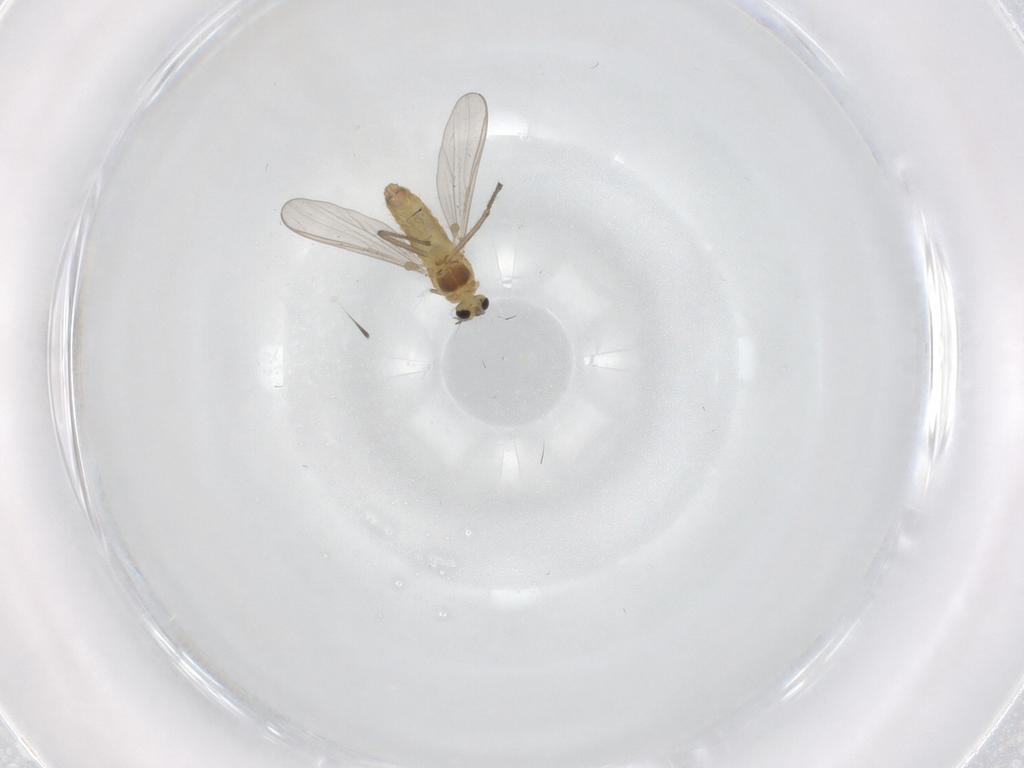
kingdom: Animalia
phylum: Arthropoda
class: Insecta
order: Diptera
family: Chironomidae
